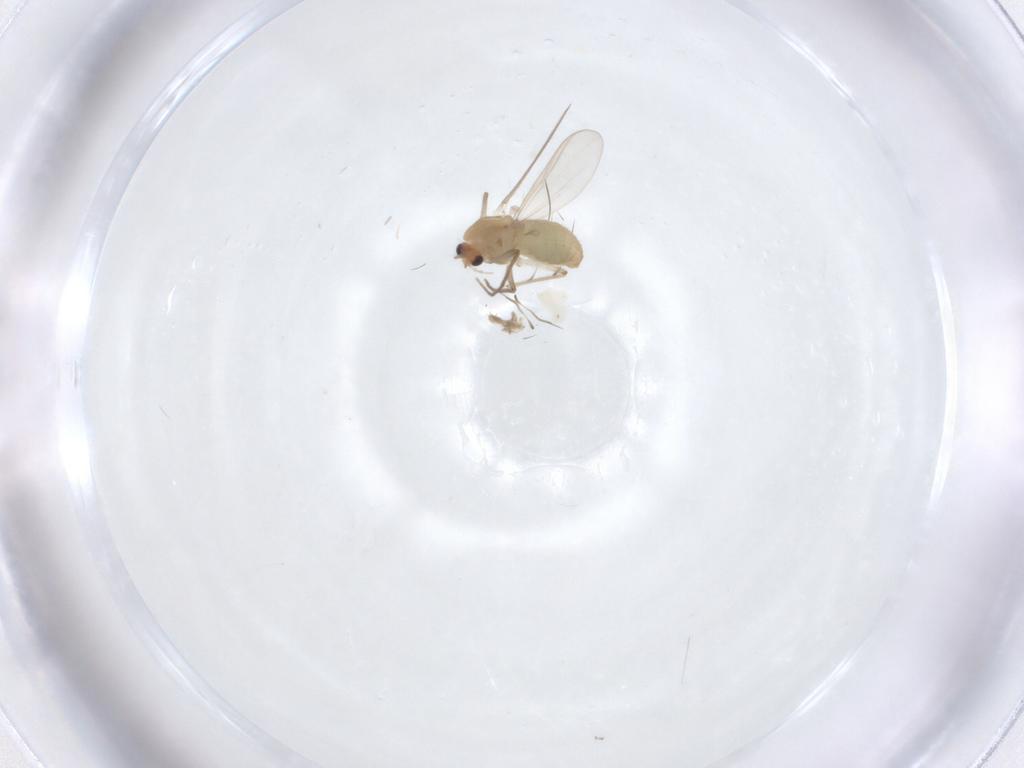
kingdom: Animalia
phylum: Arthropoda
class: Insecta
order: Diptera
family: Chironomidae
